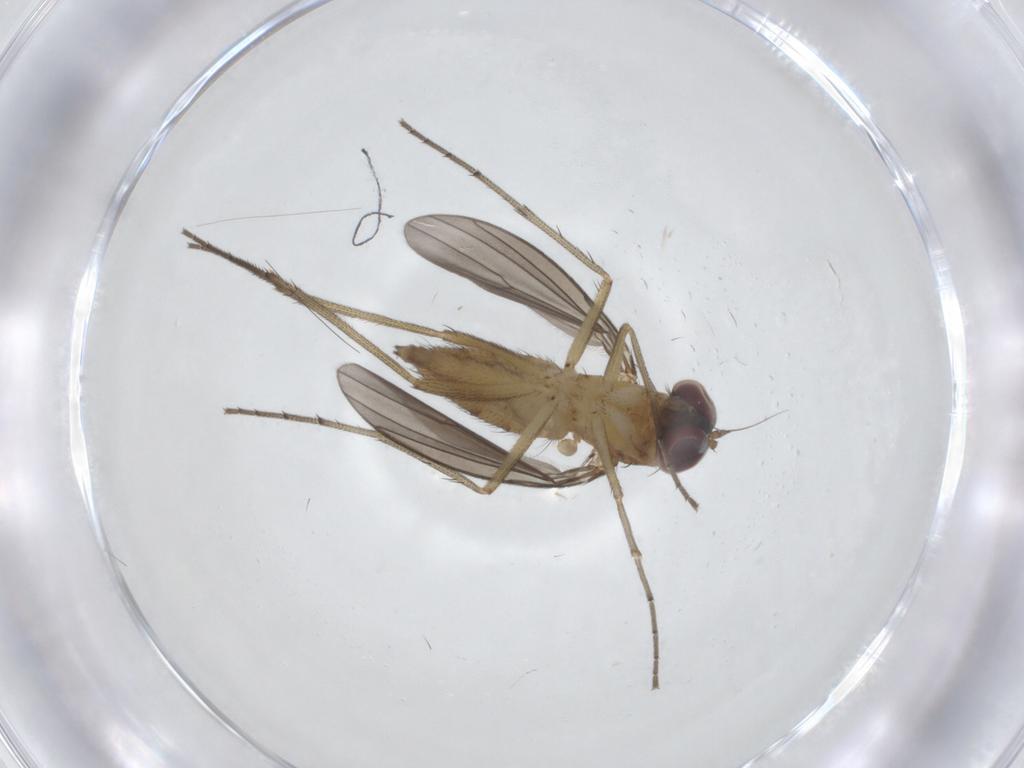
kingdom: Animalia
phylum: Arthropoda
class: Insecta
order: Diptera
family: Dolichopodidae
